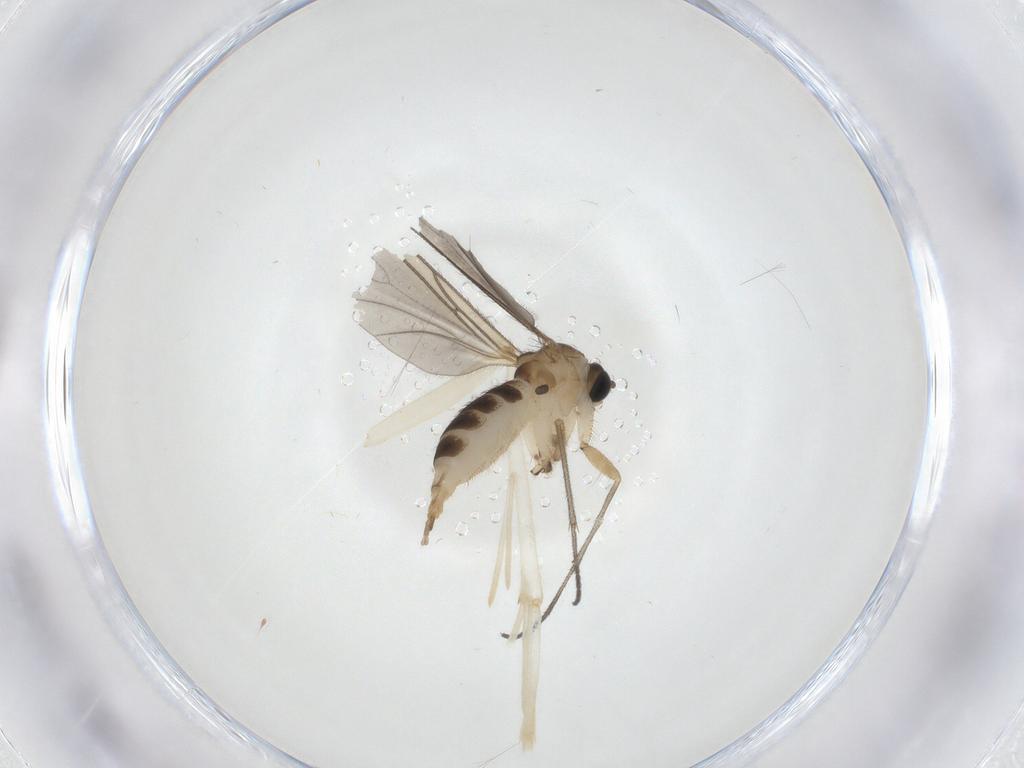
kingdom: Animalia
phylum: Arthropoda
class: Insecta
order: Diptera
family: Sciaridae
